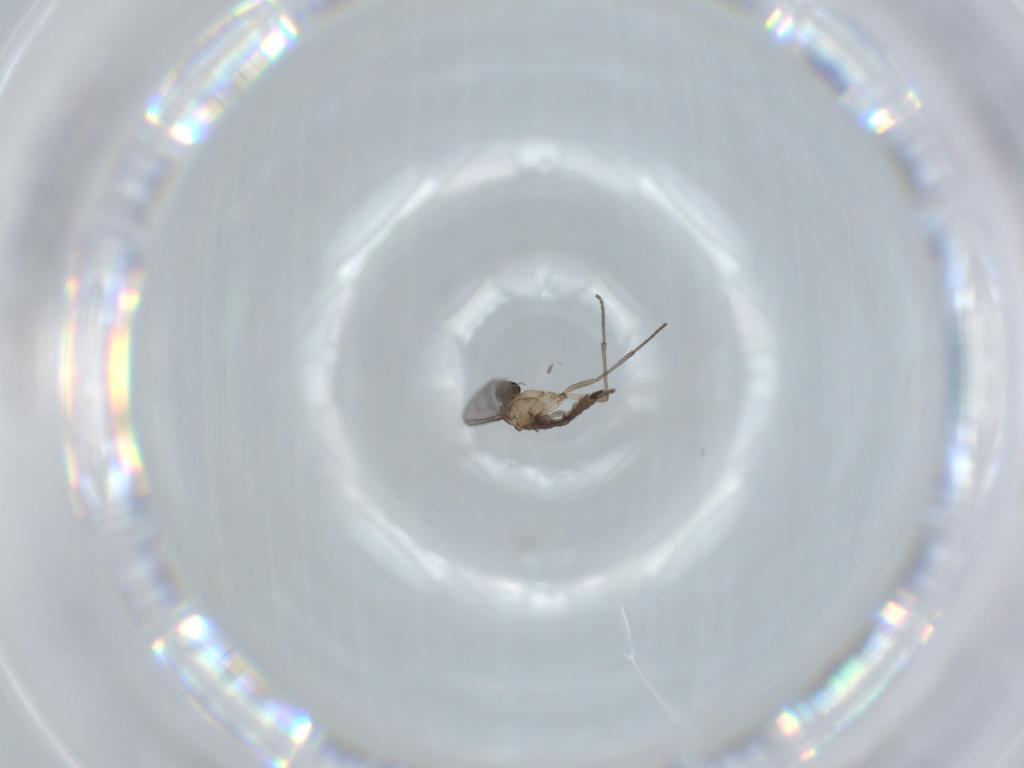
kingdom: Animalia
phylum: Arthropoda
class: Insecta
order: Diptera
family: Sciaridae
